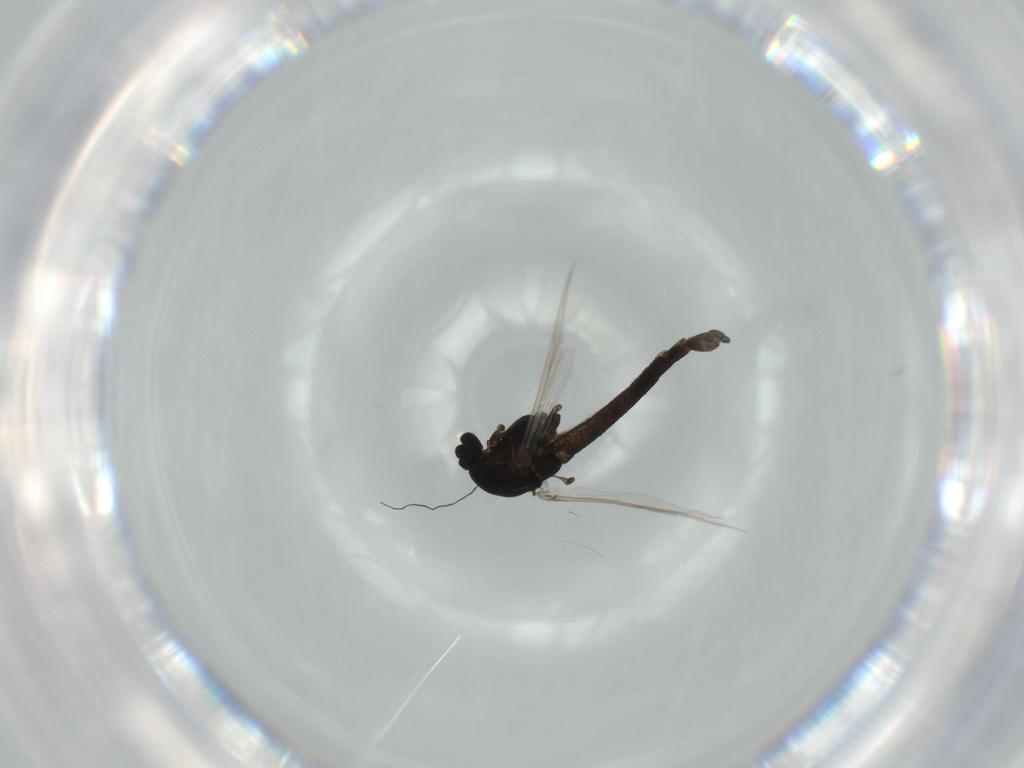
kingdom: Animalia
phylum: Arthropoda
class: Insecta
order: Diptera
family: Chironomidae
